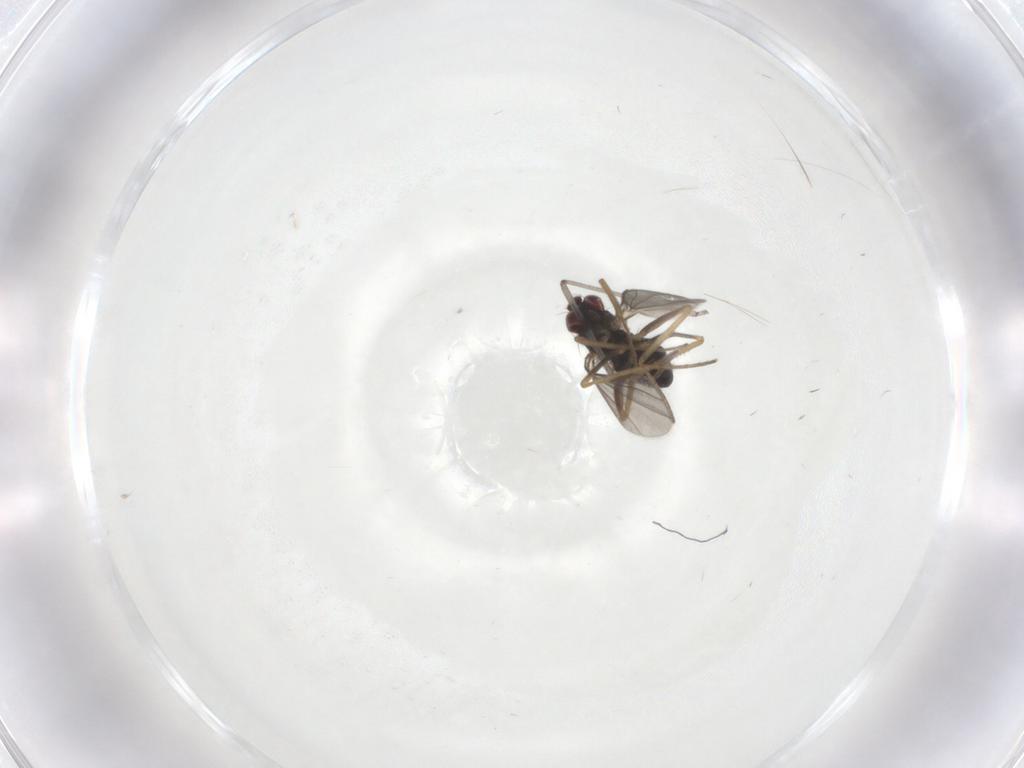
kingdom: Animalia
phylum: Arthropoda
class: Insecta
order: Diptera
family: Cecidomyiidae
